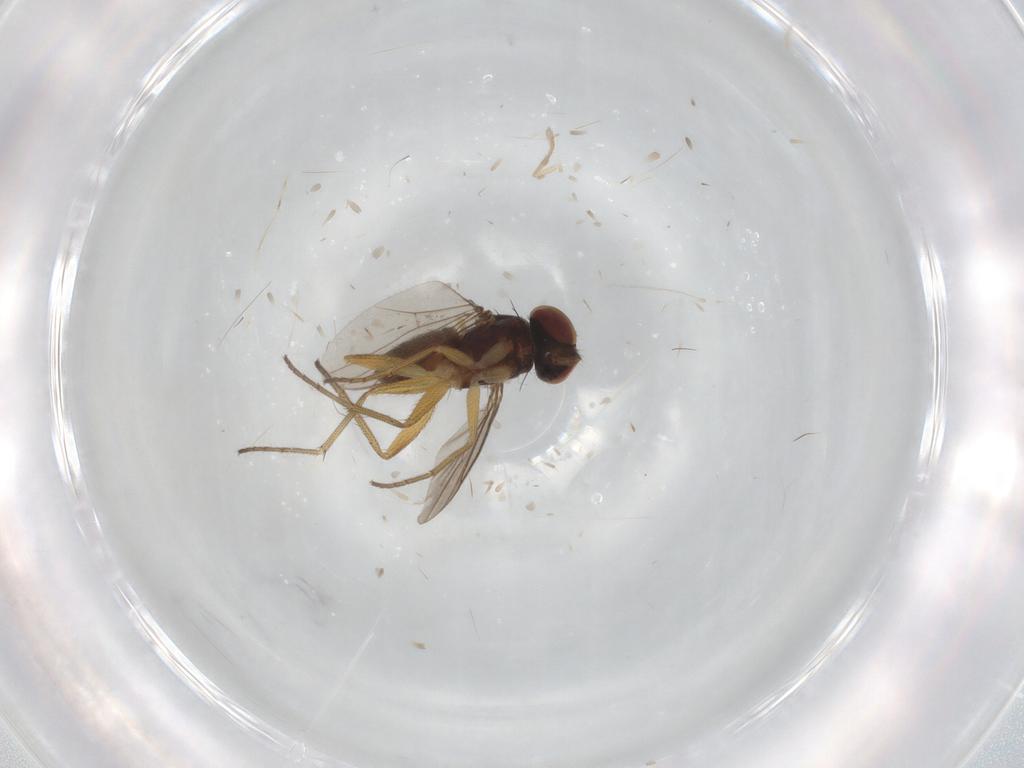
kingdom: Animalia
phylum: Arthropoda
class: Insecta
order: Diptera
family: Dolichopodidae
